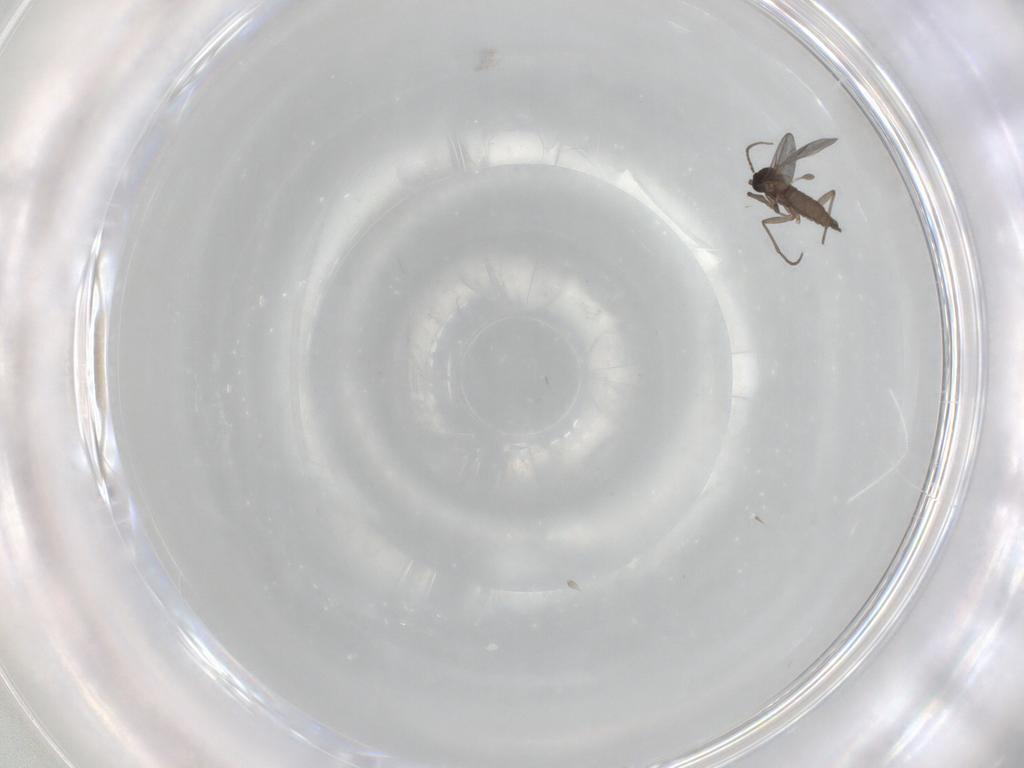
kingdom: Animalia
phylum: Arthropoda
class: Insecta
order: Diptera
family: Sciaridae
